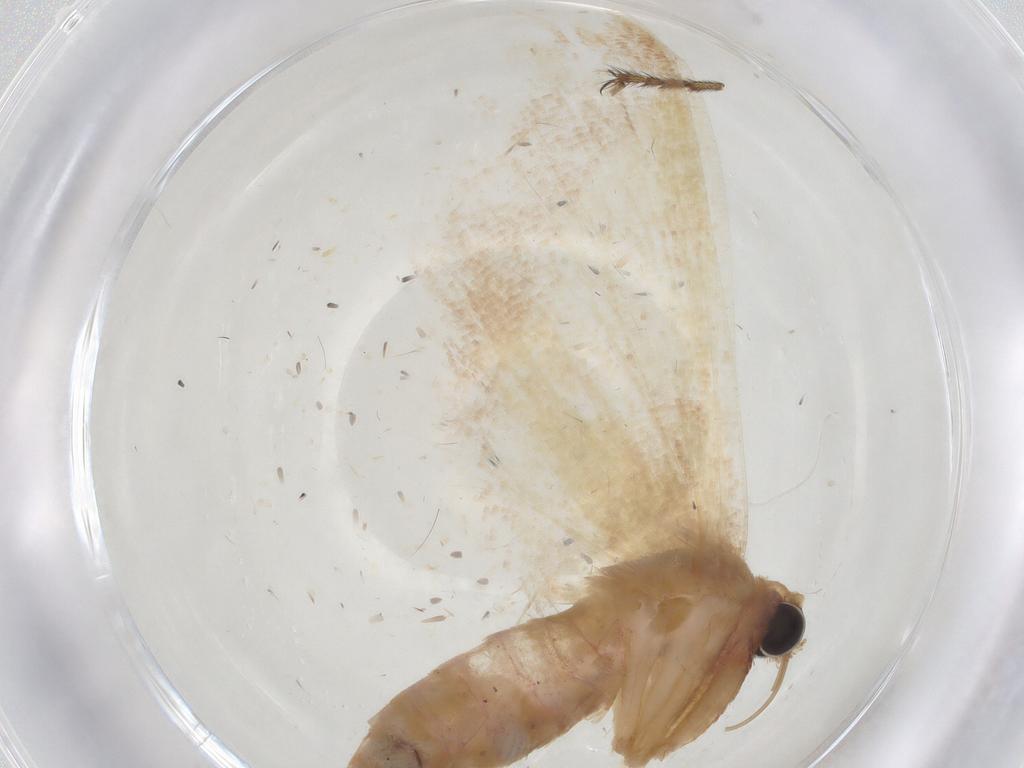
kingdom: Animalia
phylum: Arthropoda
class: Insecta
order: Lepidoptera
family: Geometridae
